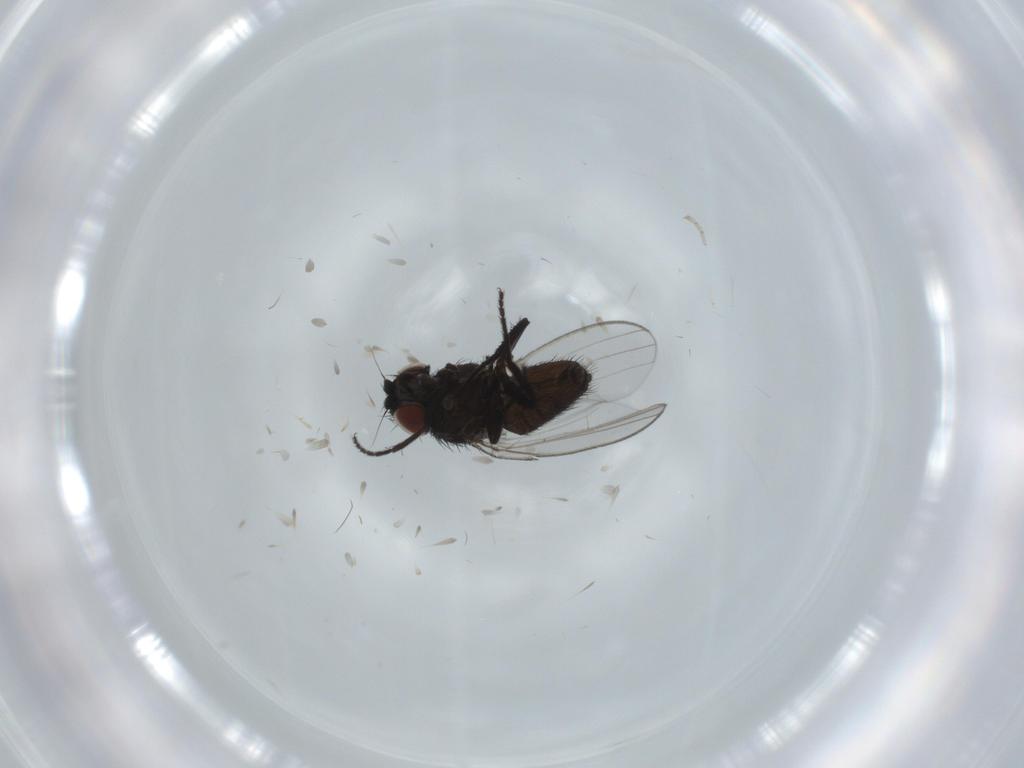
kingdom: Animalia
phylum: Arthropoda
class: Insecta
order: Diptera
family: Milichiidae
